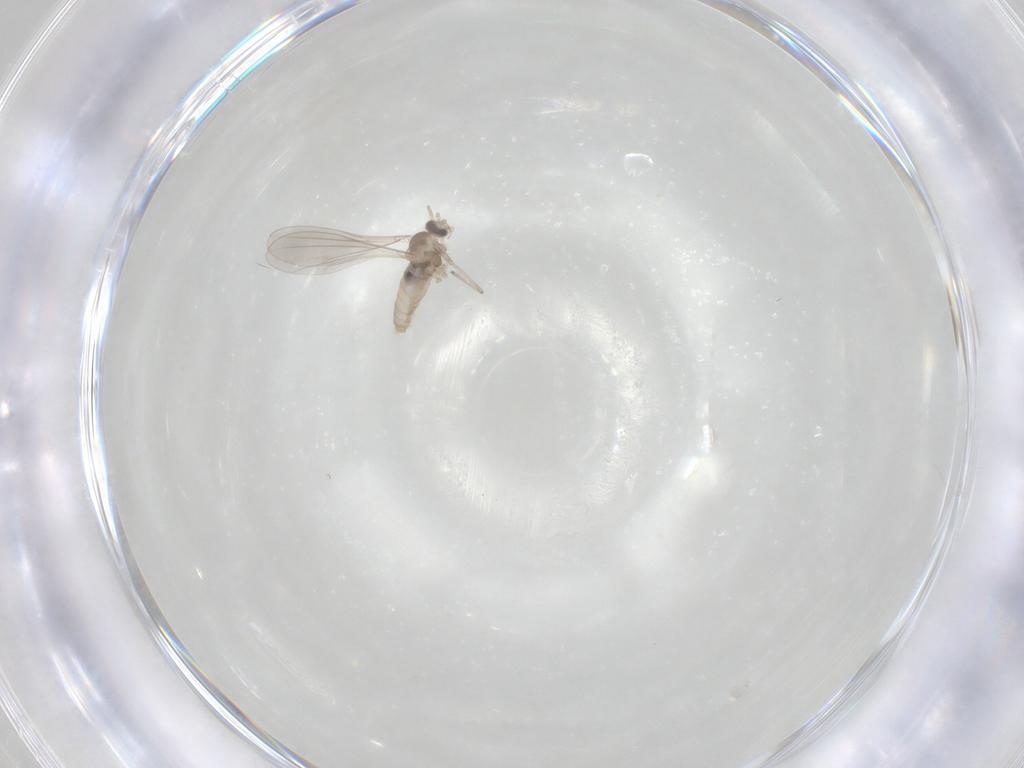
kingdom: Animalia
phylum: Arthropoda
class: Insecta
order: Diptera
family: Cecidomyiidae
